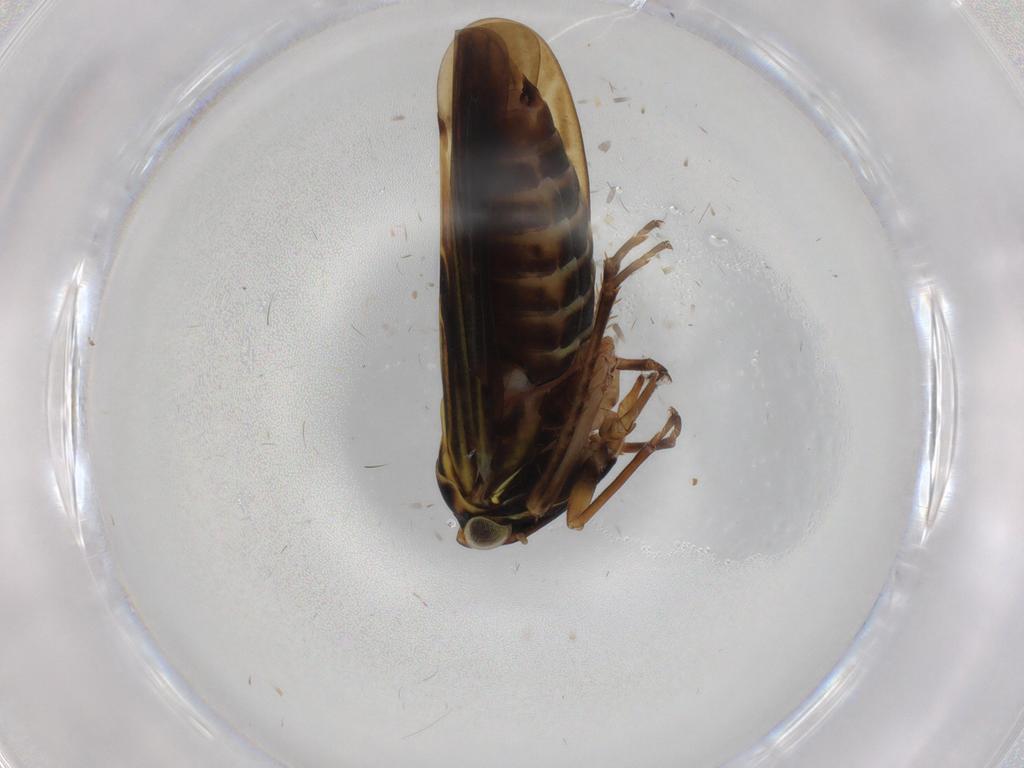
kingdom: Animalia
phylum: Arthropoda
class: Insecta
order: Hemiptera
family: Cicadellidae
